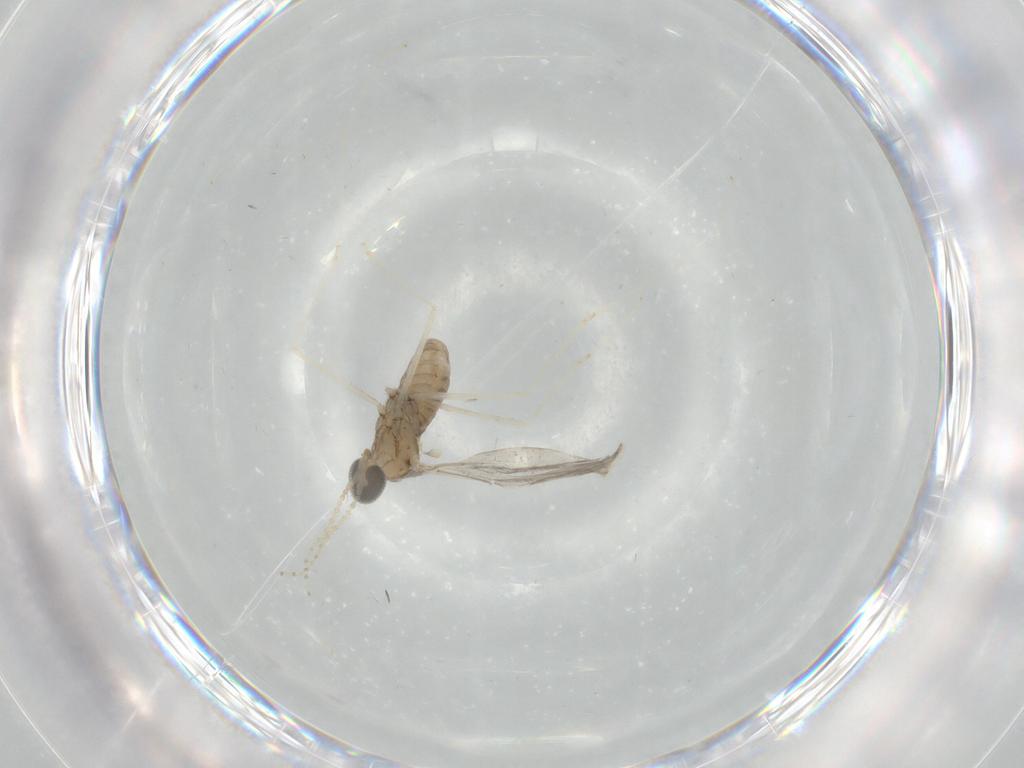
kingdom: Animalia
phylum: Arthropoda
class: Insecta
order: Diptera
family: Cecidomyiidae
